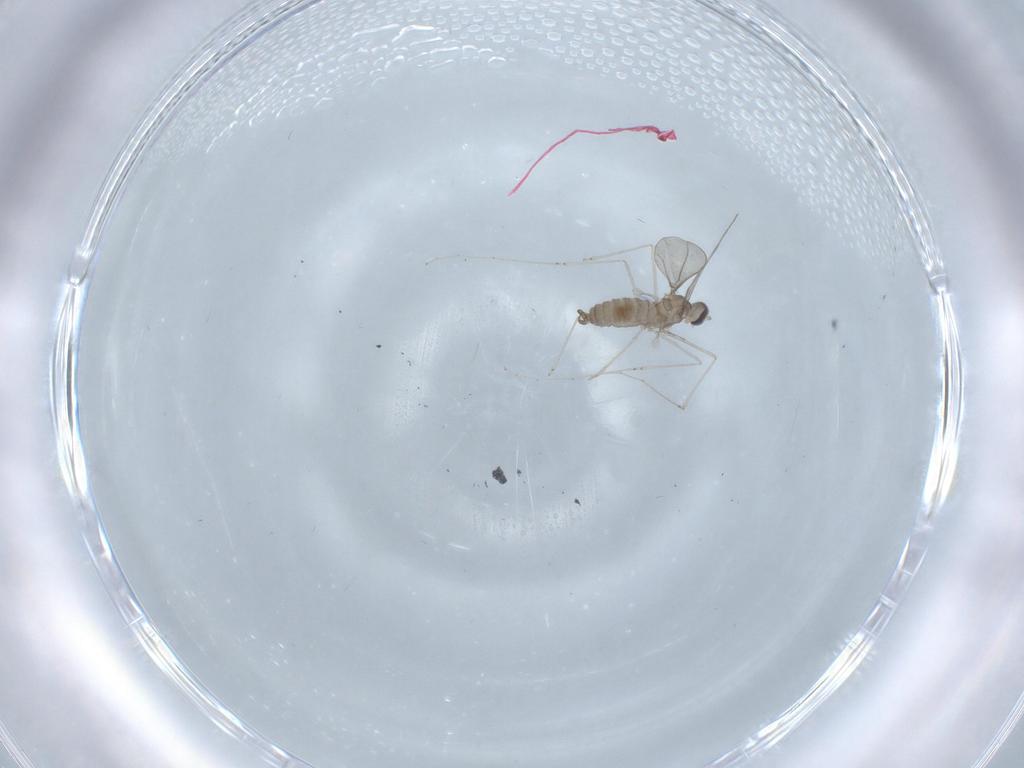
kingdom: Animalia
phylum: Arthropoda
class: Insecta
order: Diptera
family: Cecidomyiidae
